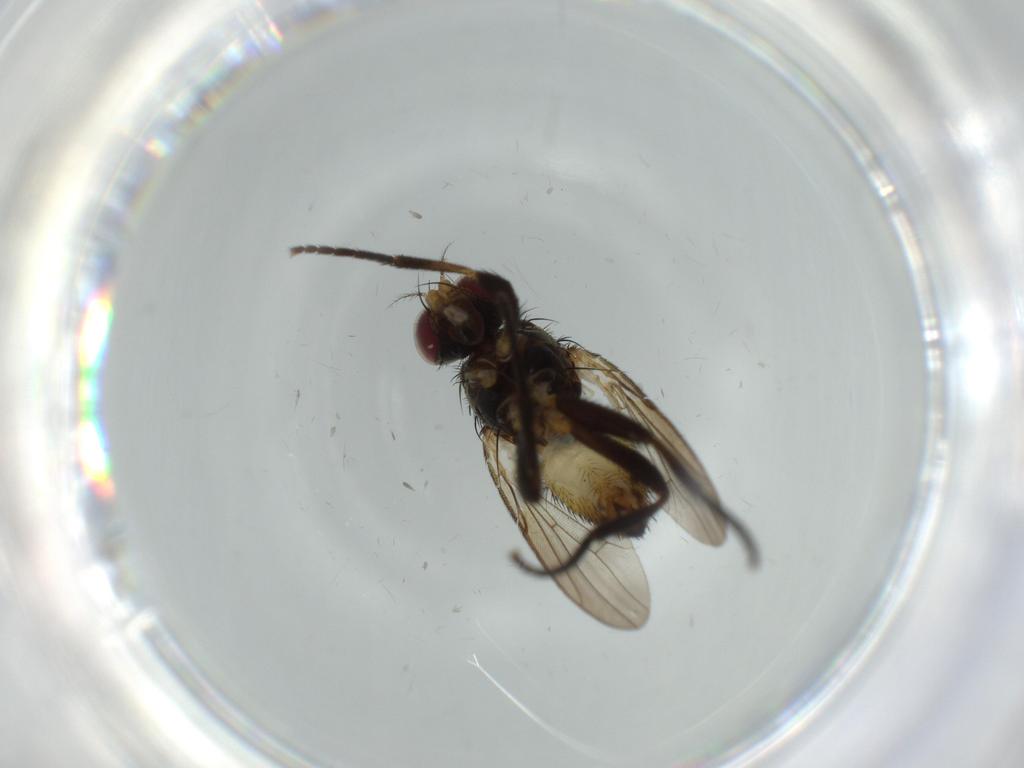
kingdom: Animalia
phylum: Arthropoda
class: Insecta
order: Diptera
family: Anthomyiidae
